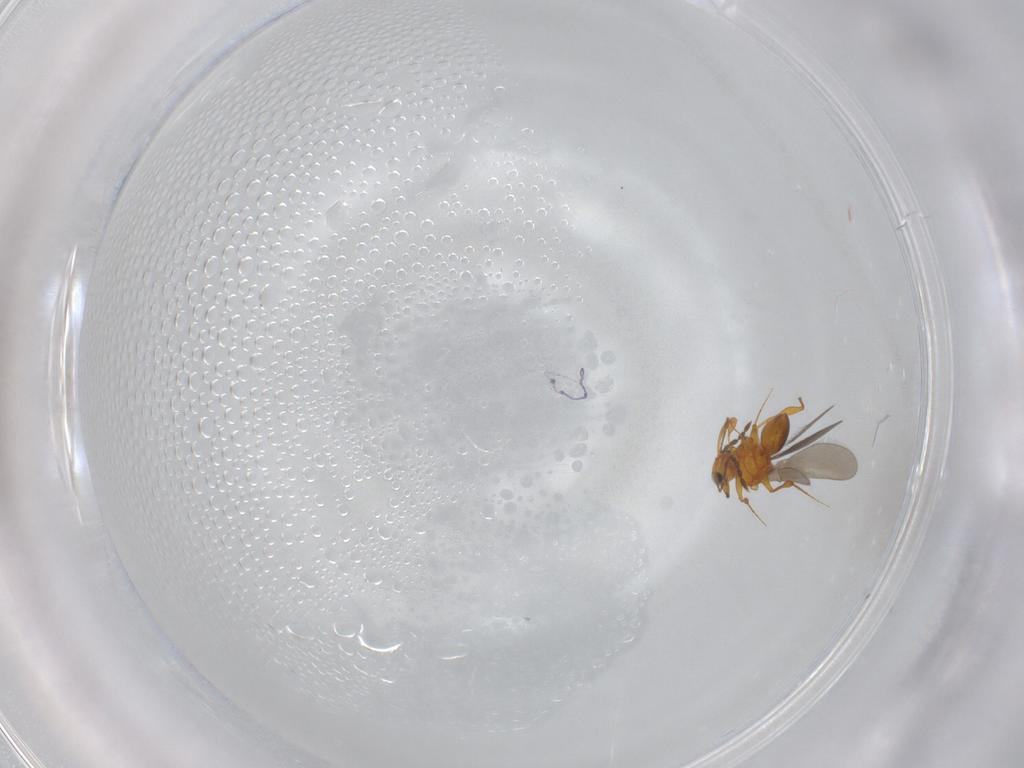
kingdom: Animalia
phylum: Arthropoda
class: Insecta
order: Hymenoptera
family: Platygastridae
